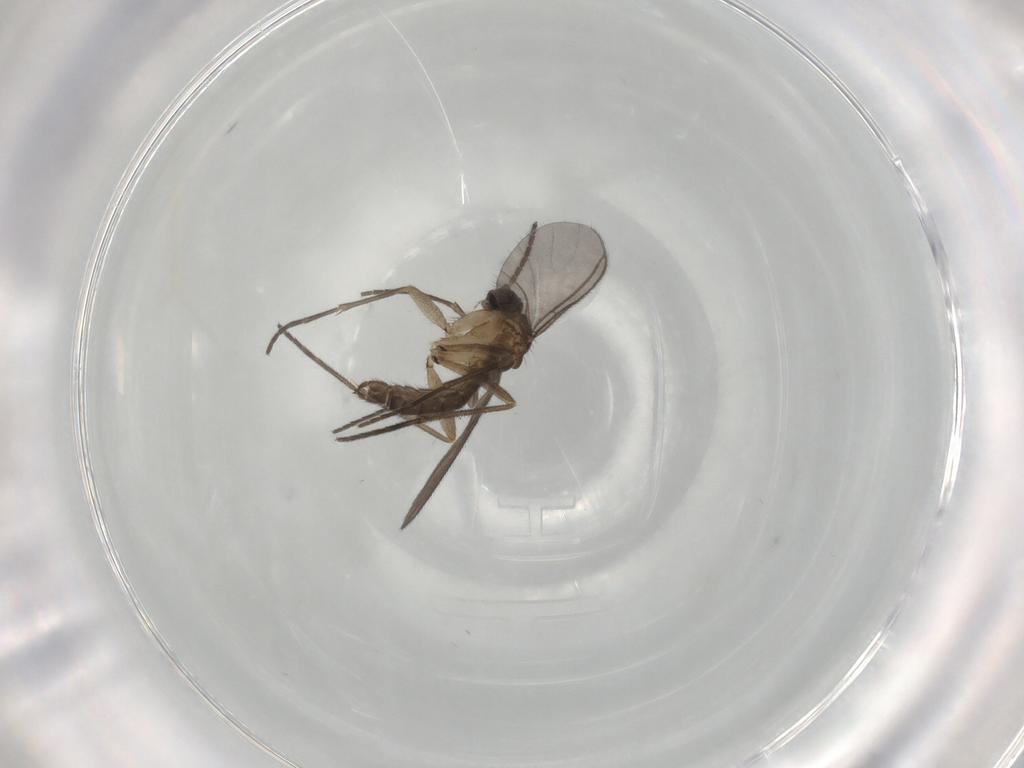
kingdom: Animalia
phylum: Arthropoda
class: Insecta
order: Diptera
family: Sciaridae
